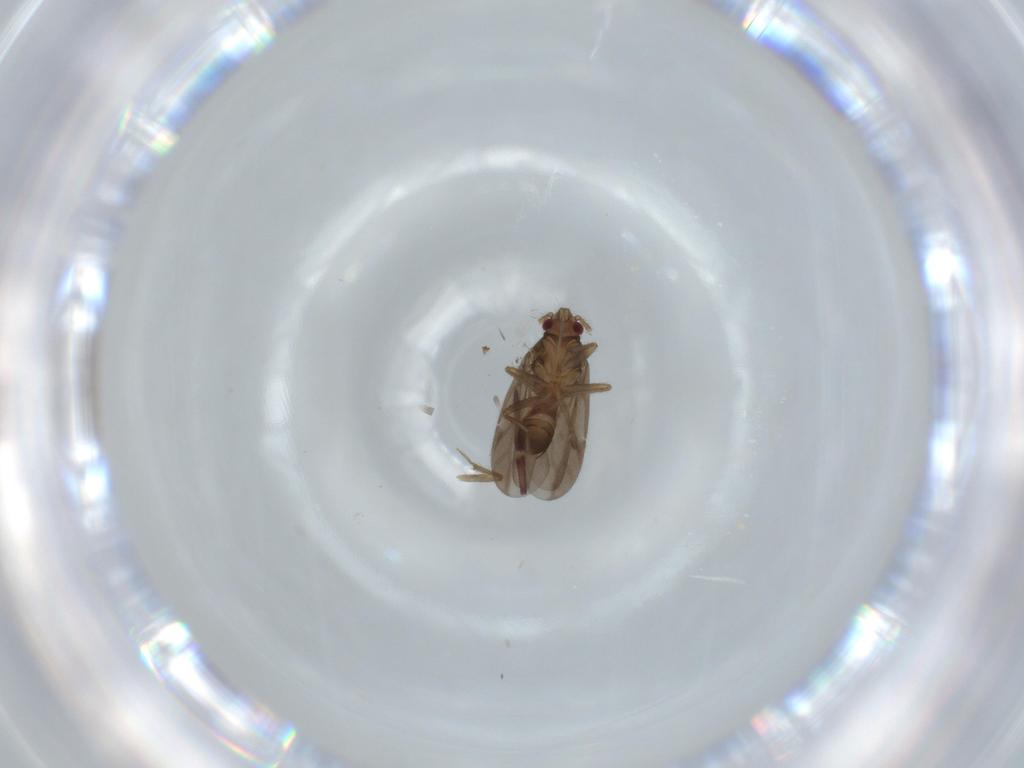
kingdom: Animalia
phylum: Arthropoda
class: Insecta
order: Hemiptera
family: Ceratocombidae
